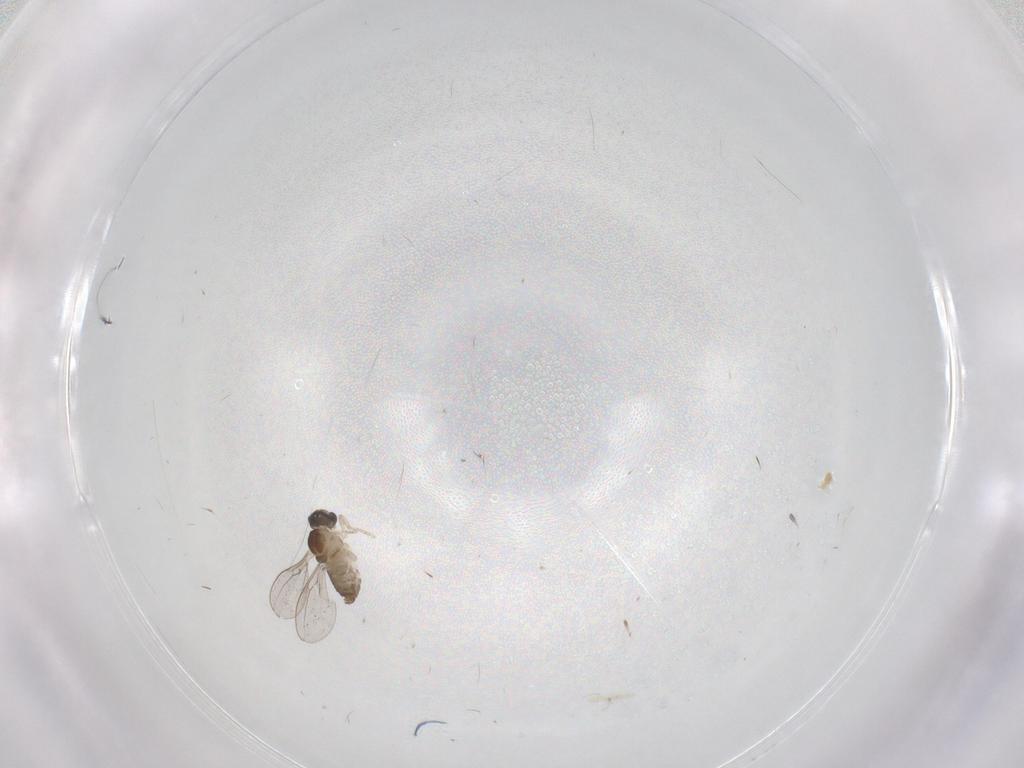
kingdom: Animalia
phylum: Arthropoda
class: Insecta
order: Diptera
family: Cecidomyiidae
